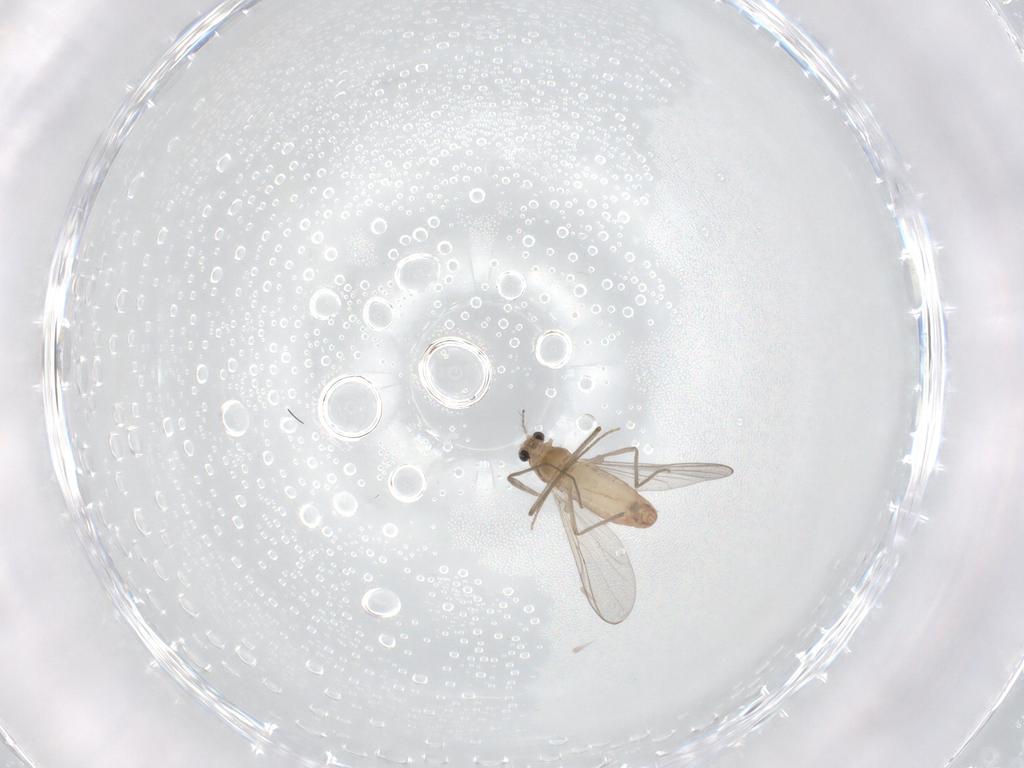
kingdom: Animalia
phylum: Arthropoda
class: Insecta
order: Diptera
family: Chironomidae
